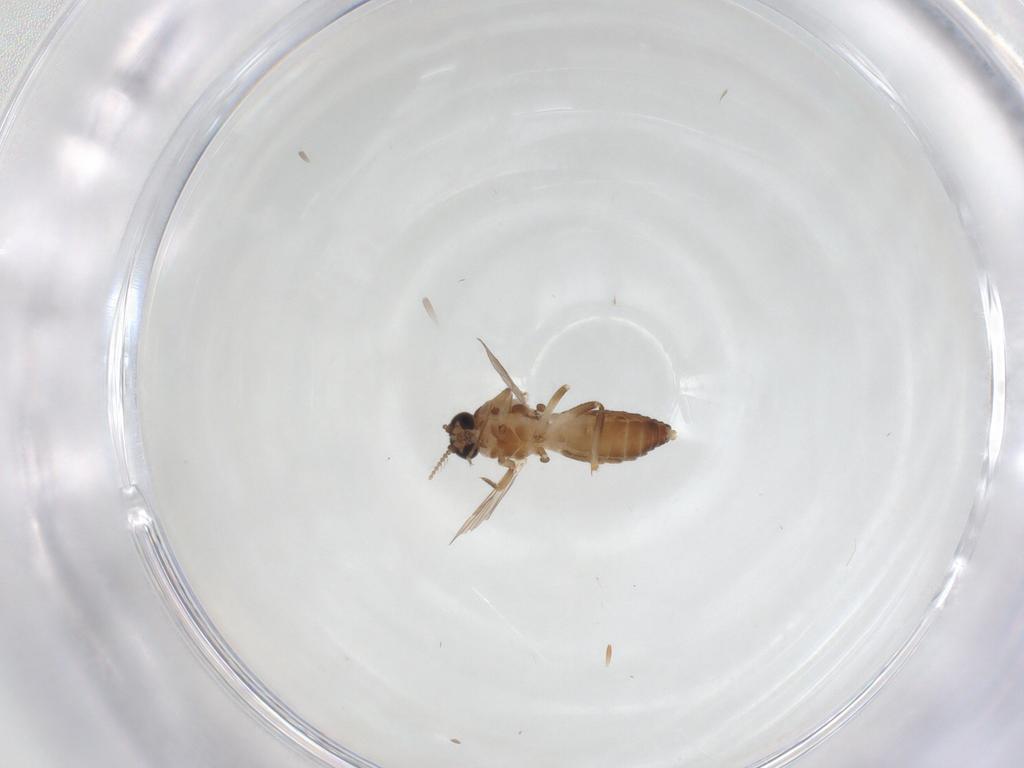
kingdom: Animalia
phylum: Arthropoda
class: Insecta
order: Diptera
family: Ceratopogonidae
